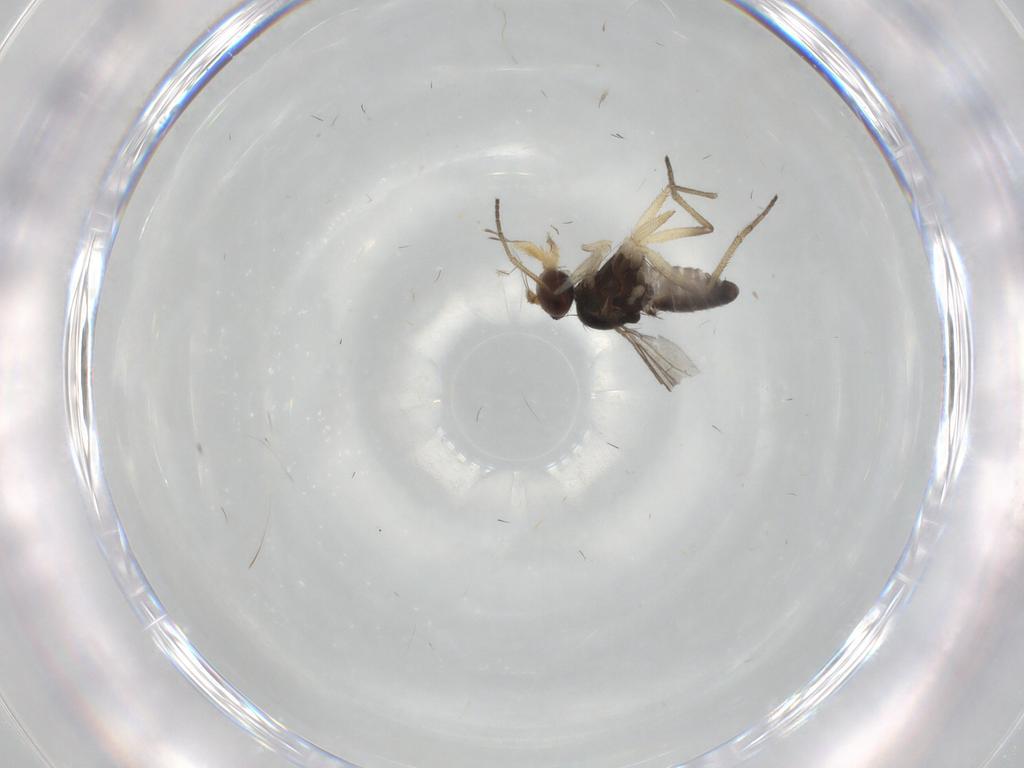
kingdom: Animalia
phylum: Arthropoda
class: Insecta
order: Diptera
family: Dolichopodidae
